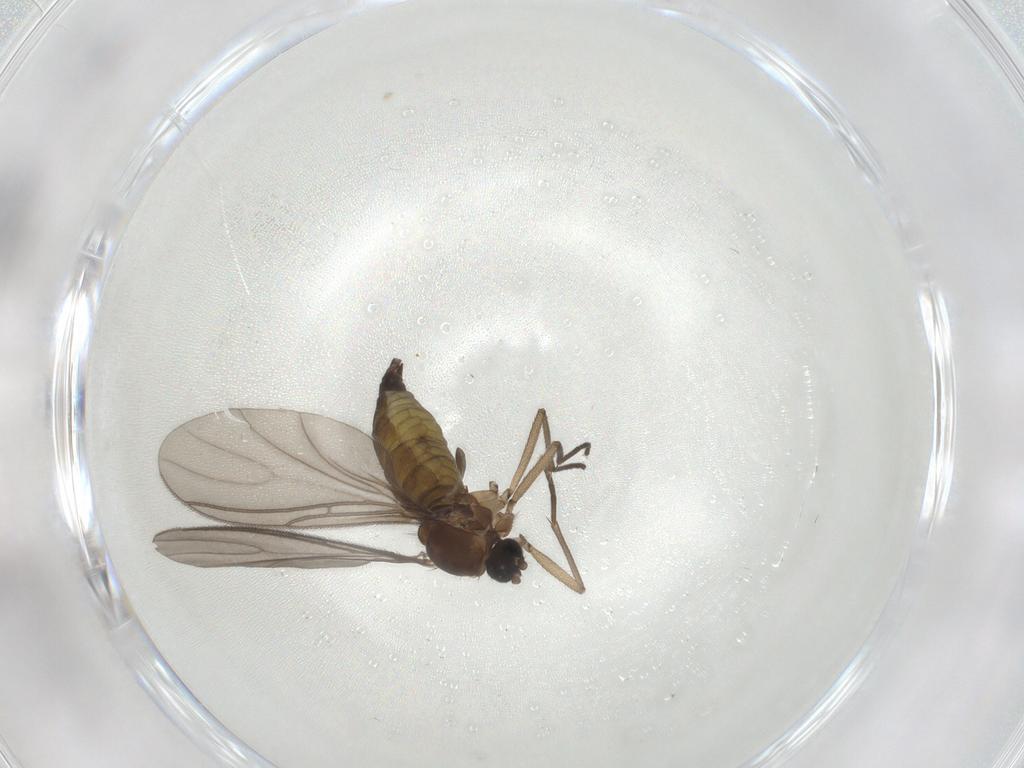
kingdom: Animalia
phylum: Arthropoda
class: Insecta
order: Diptera
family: Sciaridae
